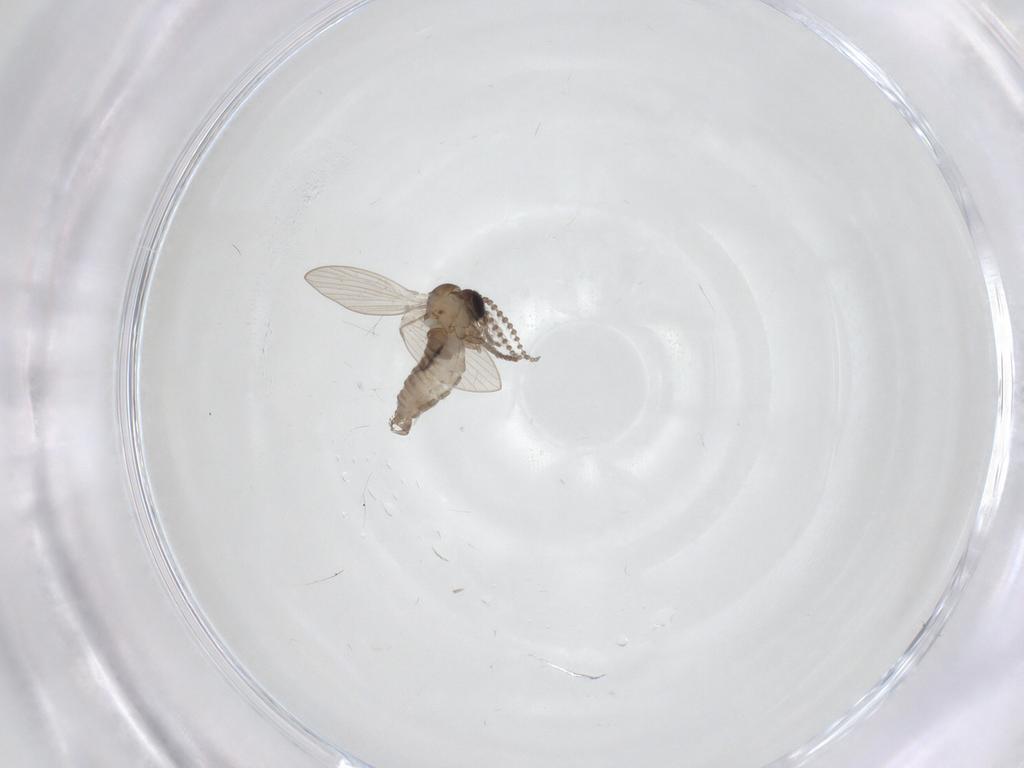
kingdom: Animalia
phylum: Arthropoda
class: Insecta
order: Diptera
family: Psychodidae
